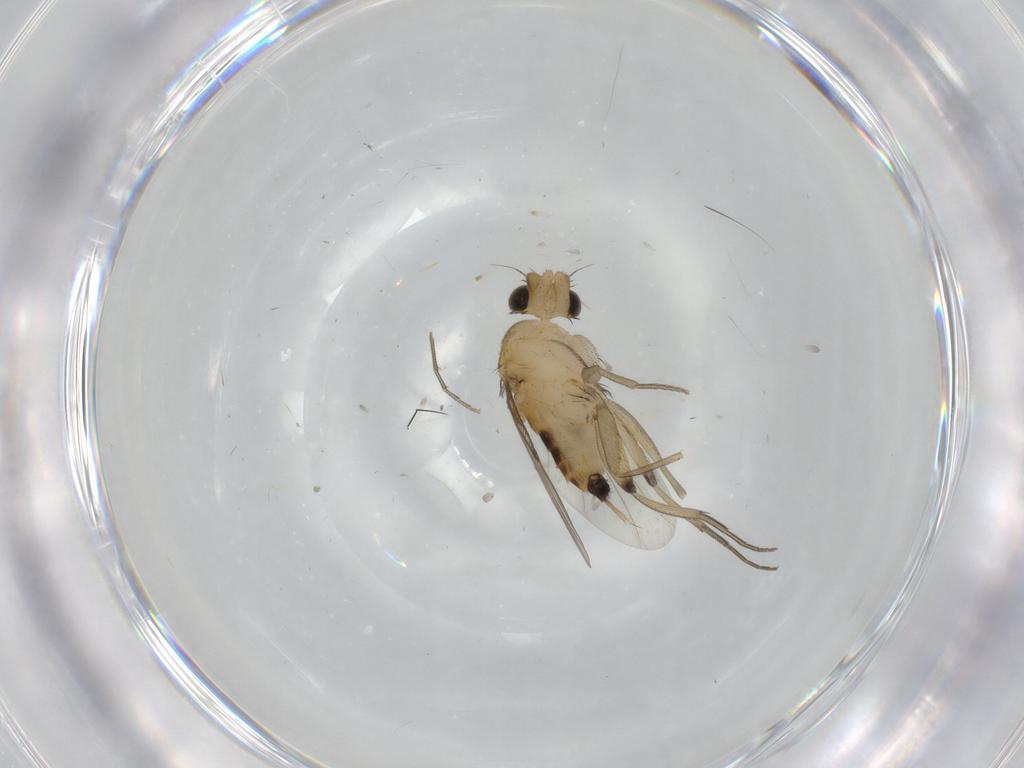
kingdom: Animalia
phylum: Arthropoda
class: Insecta
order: Diptera
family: Phoridae
